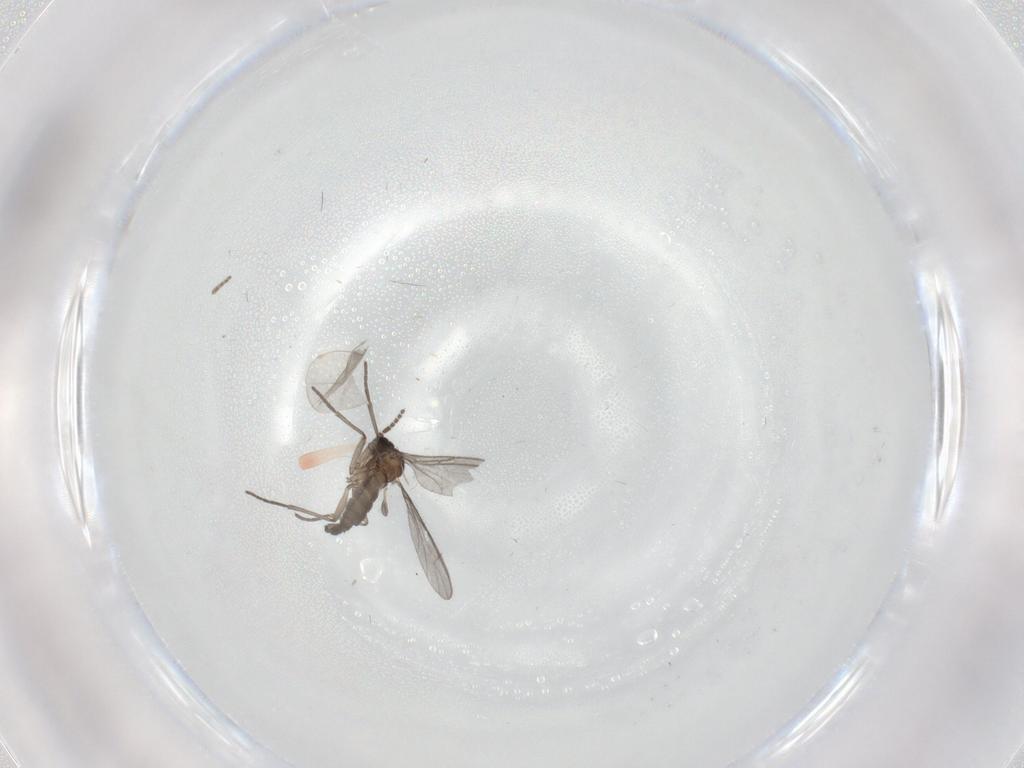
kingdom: Animalia
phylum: Arthropoda
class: Insecta
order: Diptera
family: Sciaridae
